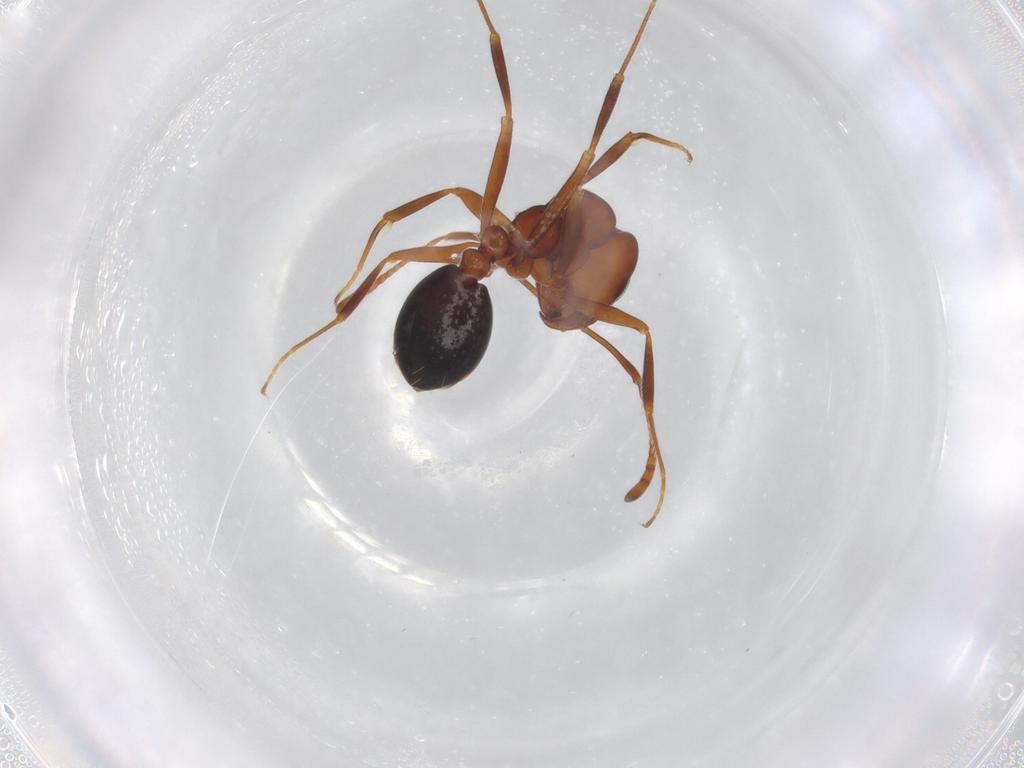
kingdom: Animalia
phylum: Arthropoda
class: Insecta
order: Hymenoptera
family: Formicidae
